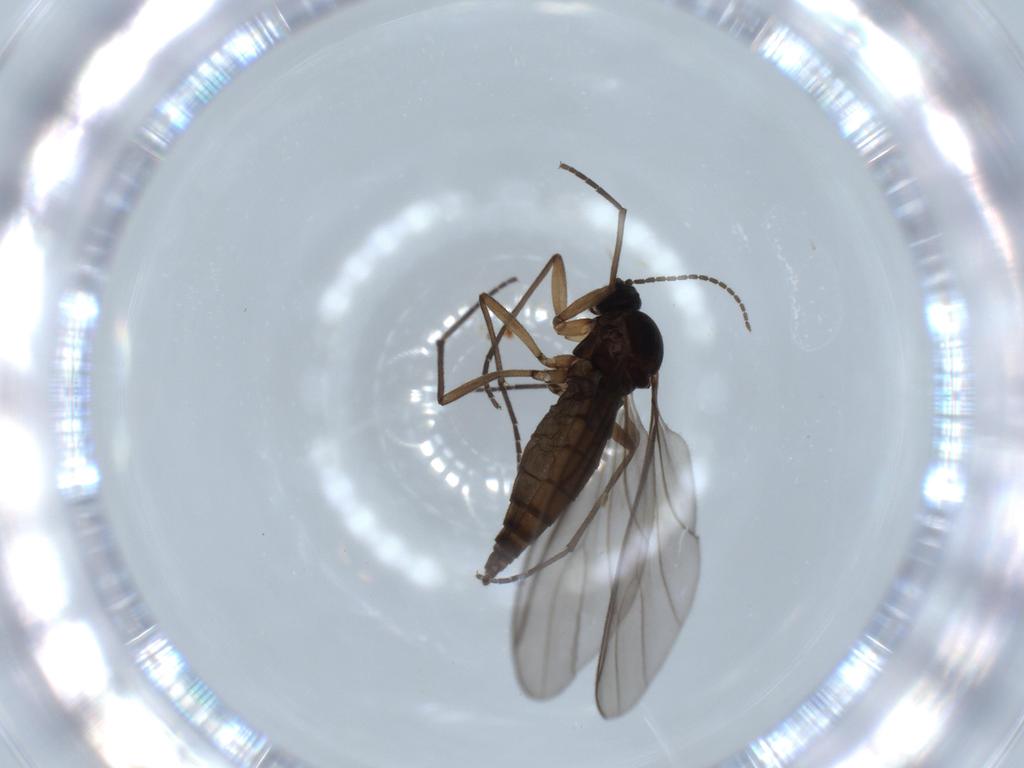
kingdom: Animalia
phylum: Arthropoda
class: Insecta
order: Diptera
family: Sciaridae
